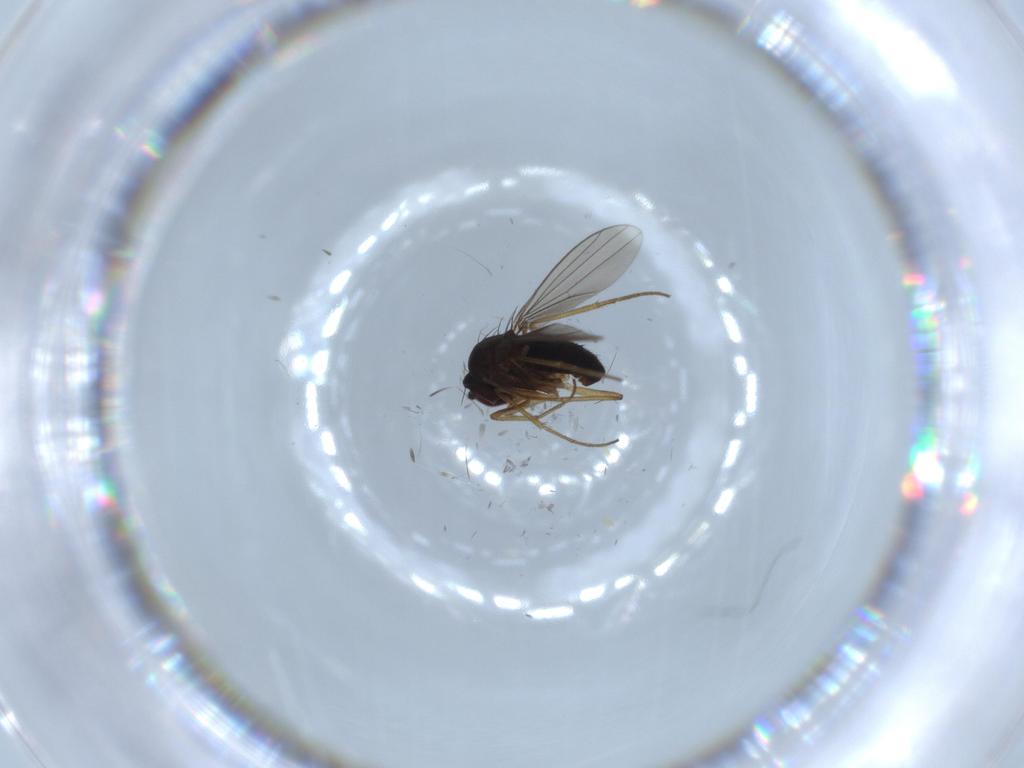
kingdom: Animalia
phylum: Arthropoda
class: Insecta
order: Diptera
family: Dolichopodidae
